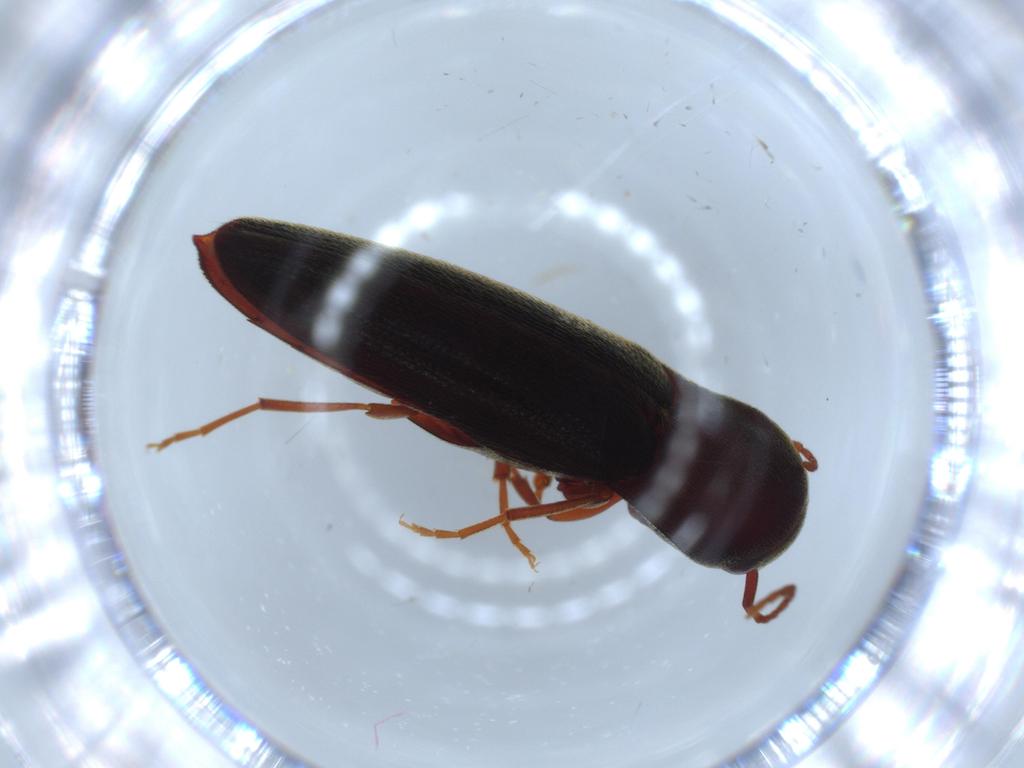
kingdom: Animalia
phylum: Arthropoda
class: Insecta
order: Coleoptera
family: Eucnemidae
